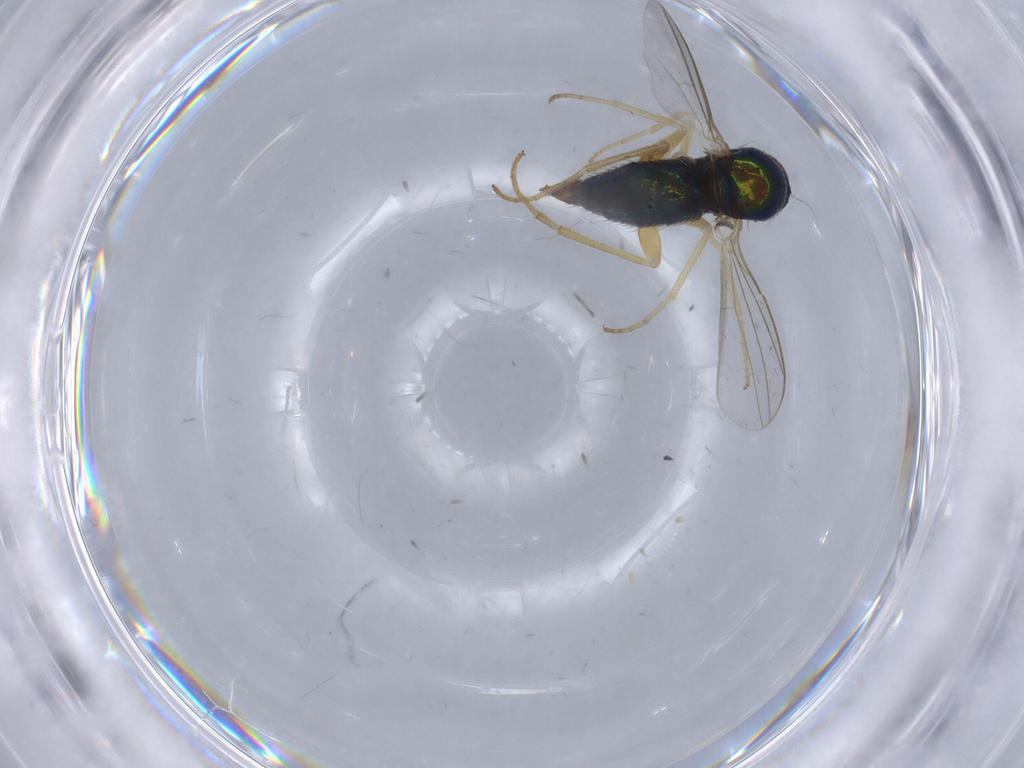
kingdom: Animalia
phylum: Arthropoda
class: Insecta
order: Diptera
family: Dolichopodidae
